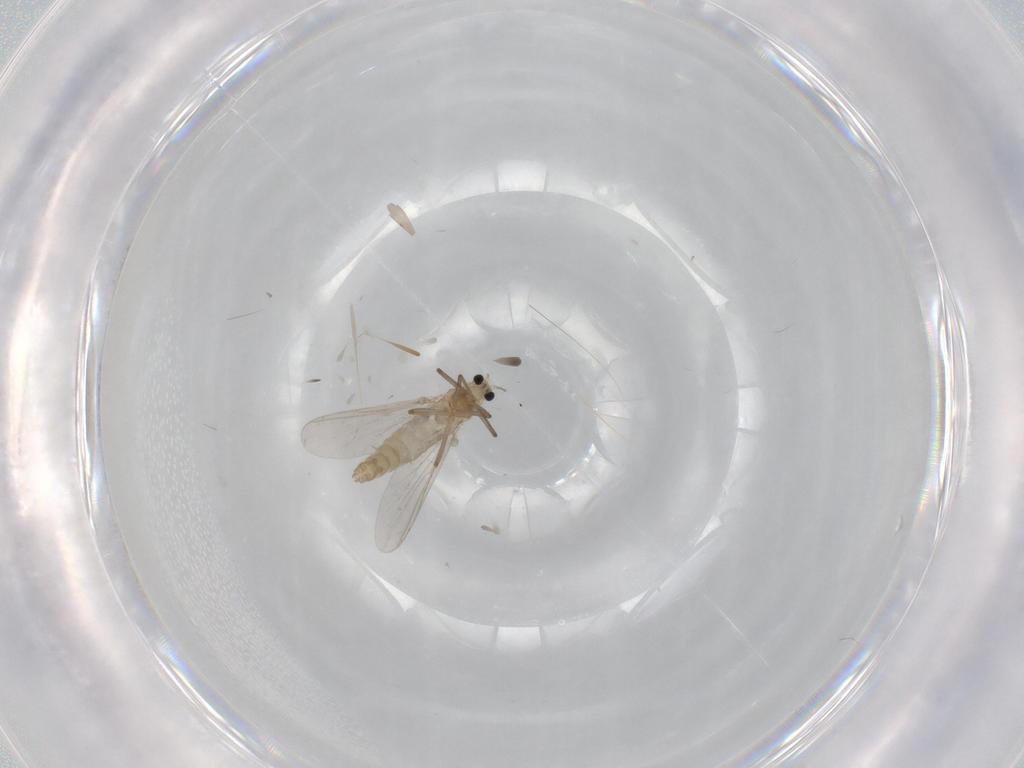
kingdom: Animalia
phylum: Arthropoda
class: Insecta
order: Diptera
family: Chironomidae
